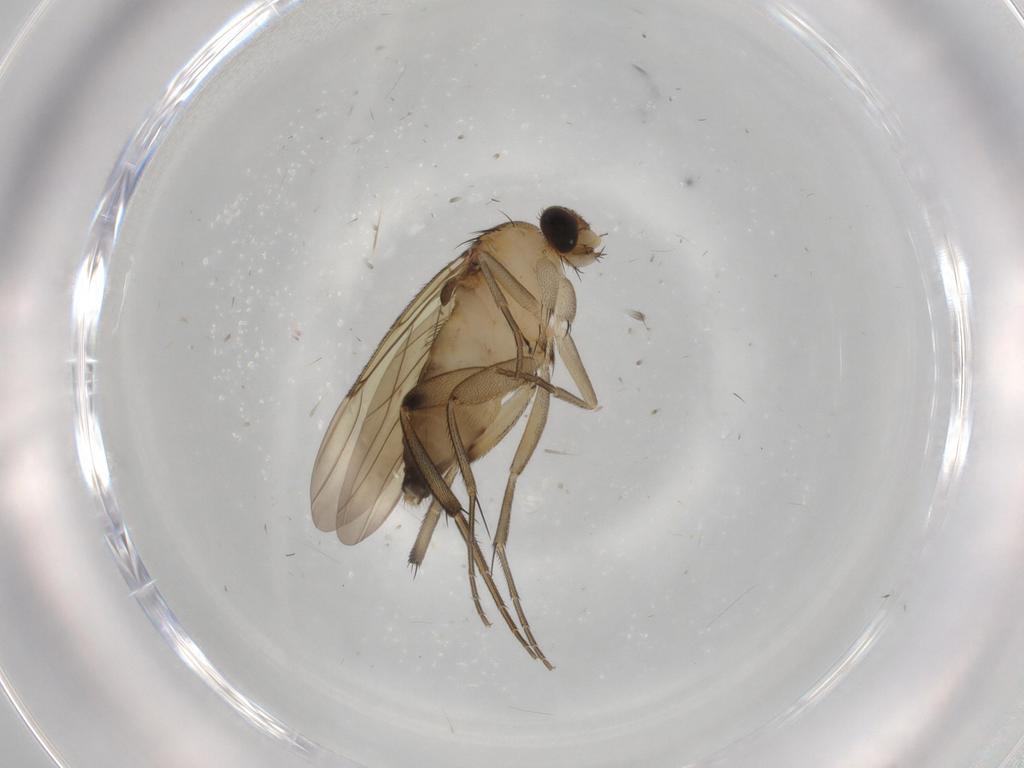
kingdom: Animalia
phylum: Arthropoda
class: Insecta
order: Diptera
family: Phoridae
